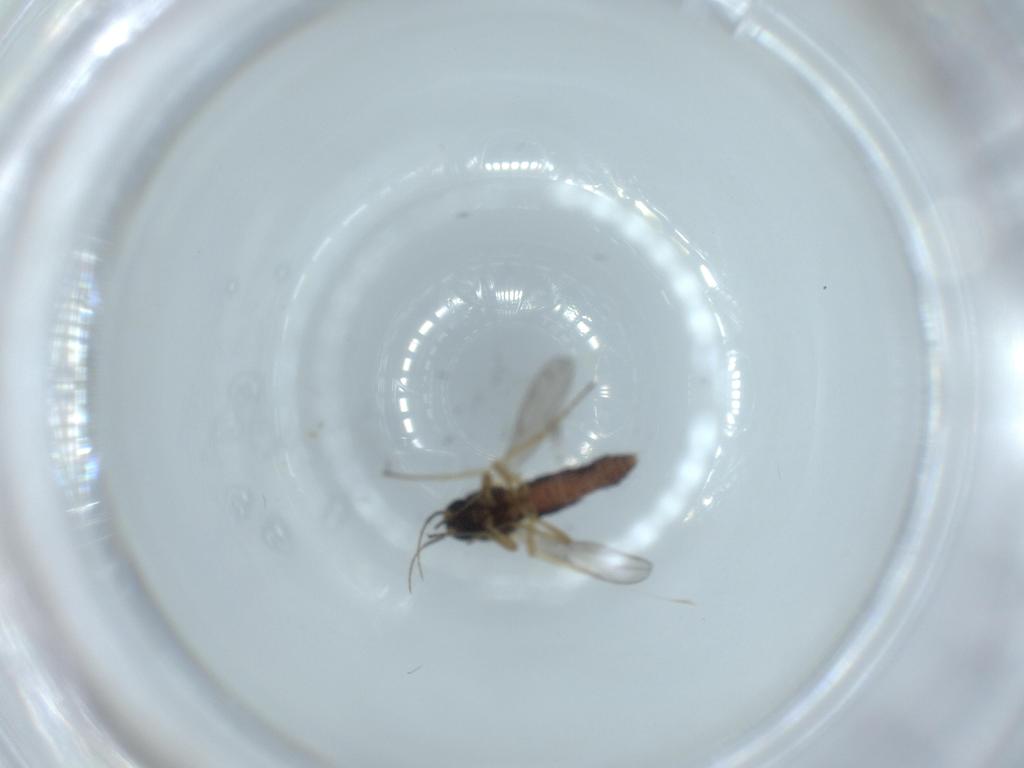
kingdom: Animalia
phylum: Arthropoda
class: Insecta
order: Diptera
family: Ceratopogonidae
